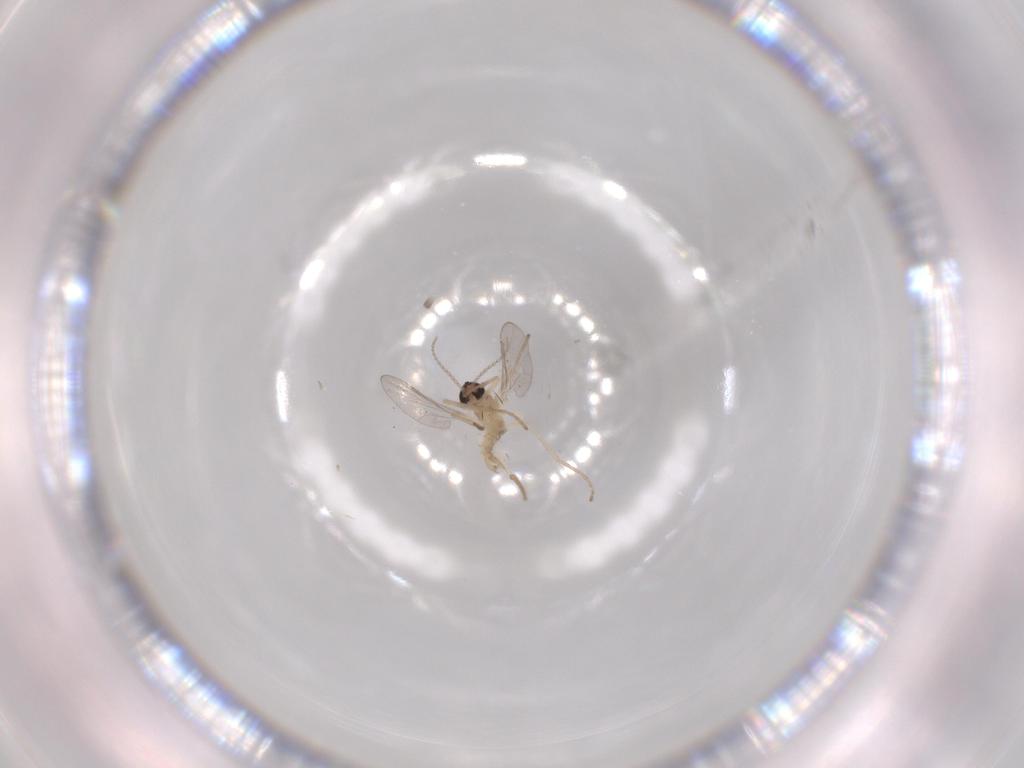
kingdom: Animalia
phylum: Arthropoda
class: Insecta
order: Diptera
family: Cecidomyiidae
